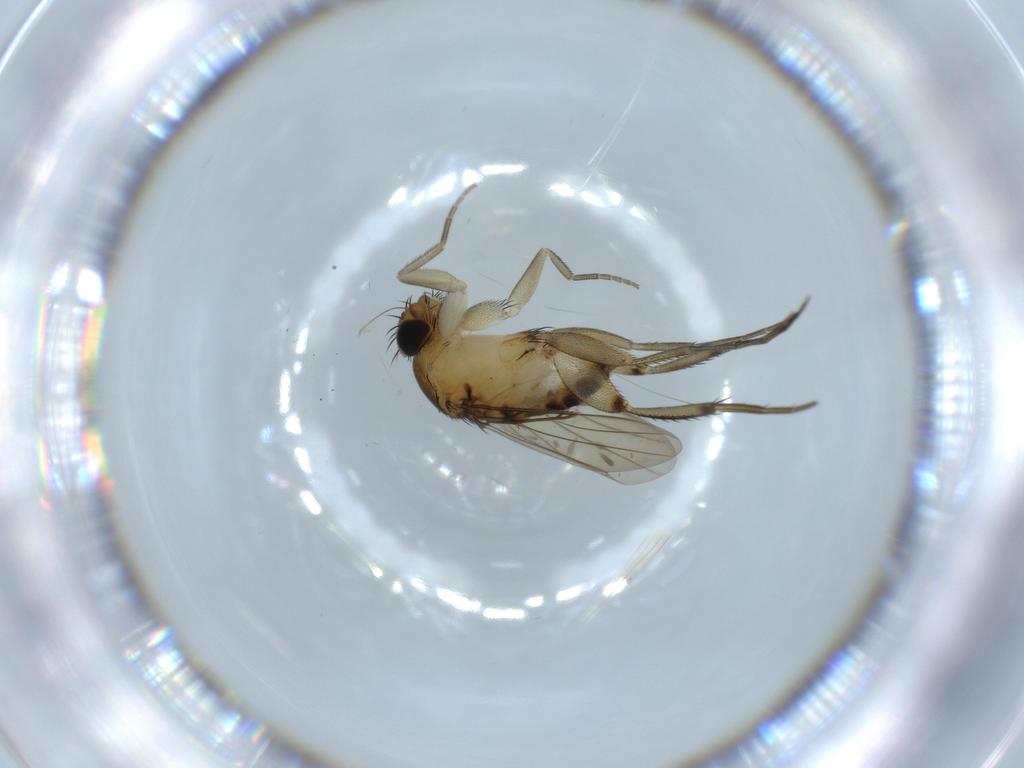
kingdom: Animalia
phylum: Arthropoda
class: Insecta
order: Diptera
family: Phoridae
